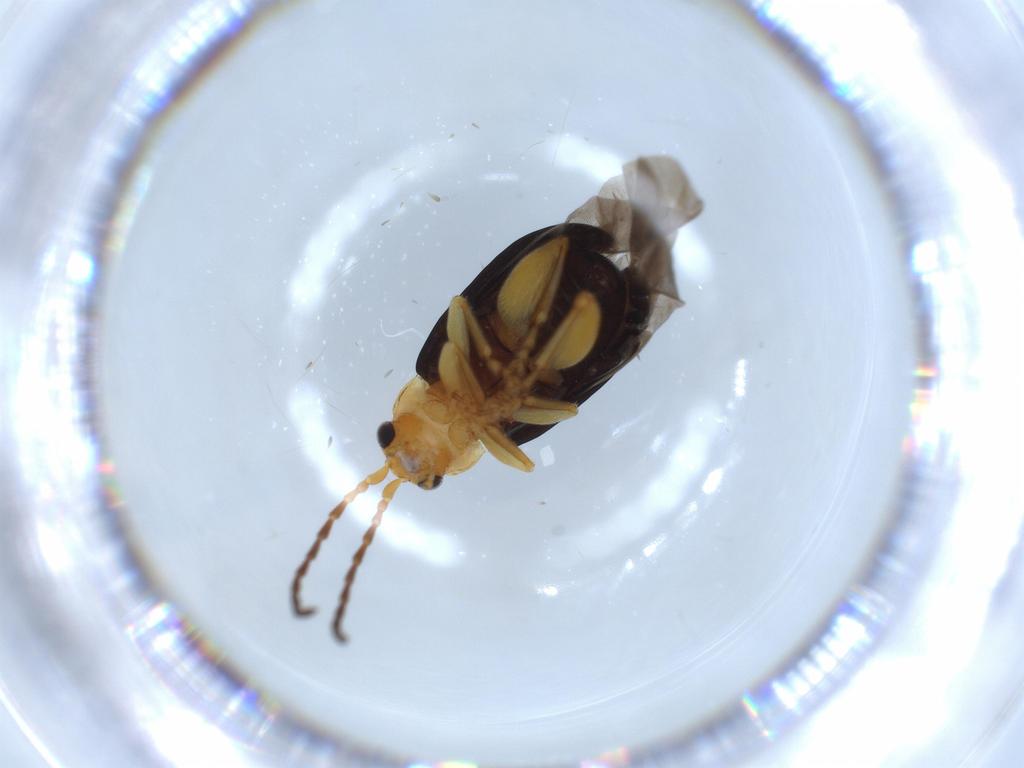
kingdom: Animalia
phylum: Arthropoda
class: Insecta
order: Coleoptera
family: Chrysomelidae
